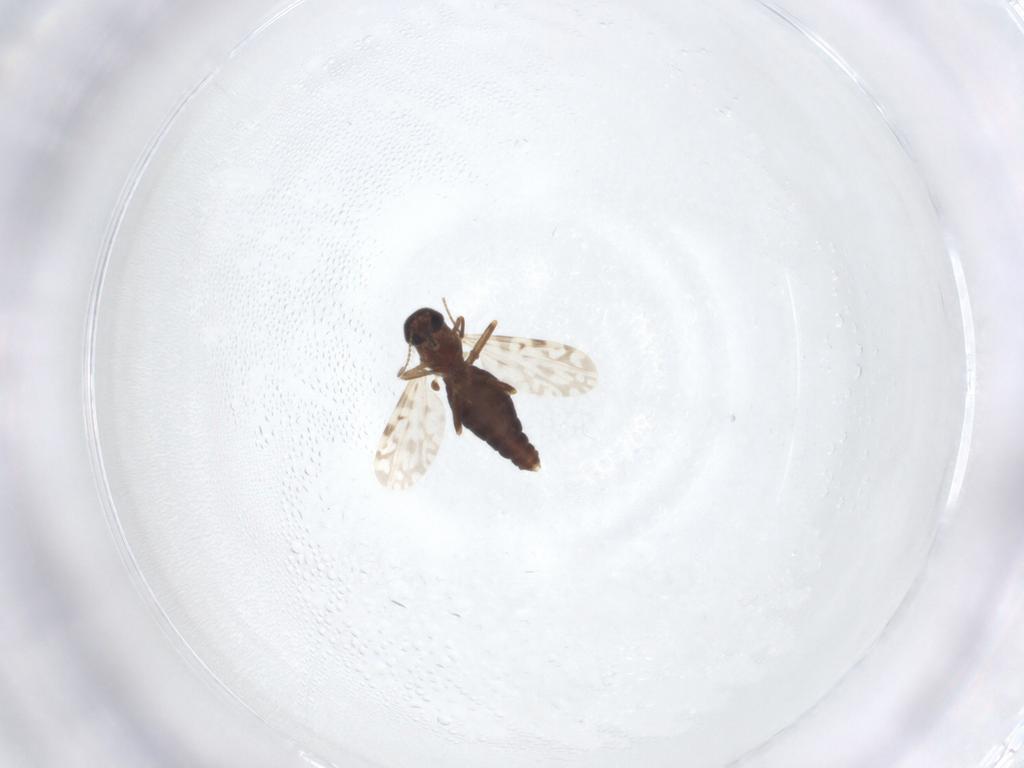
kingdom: Animalia
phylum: Arthropoda
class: Insecta
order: Diptera
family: Ceratopogonidae
